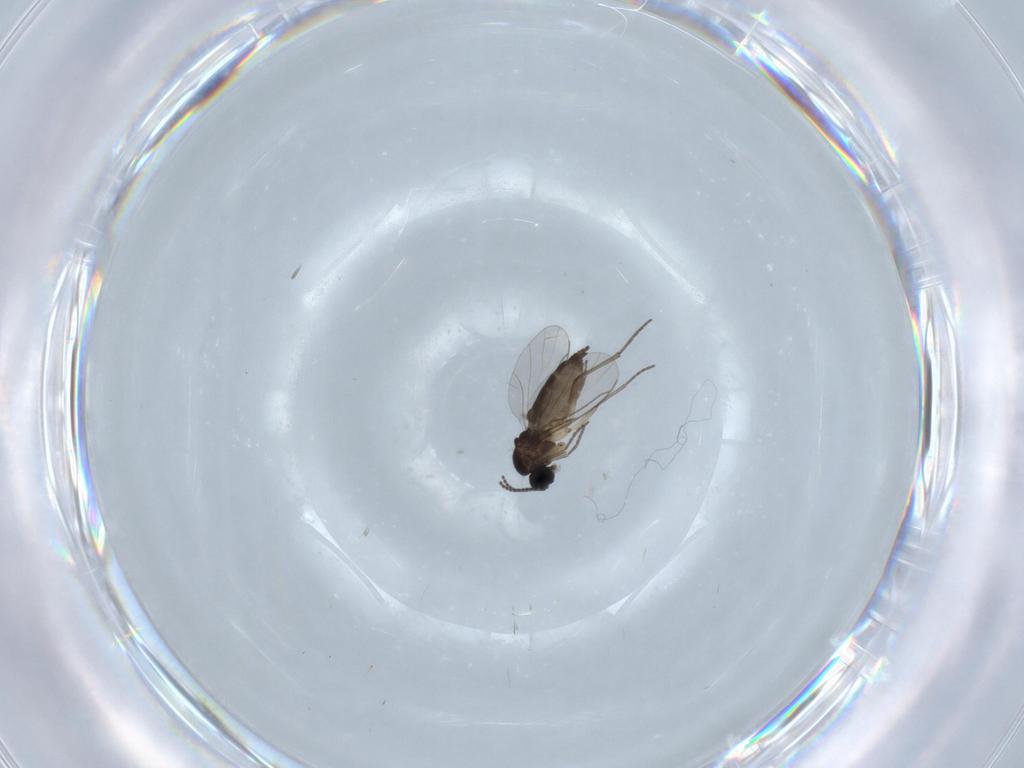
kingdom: Animalia
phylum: Arthropoda
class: Insecta
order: Diptera
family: Sciaridae
